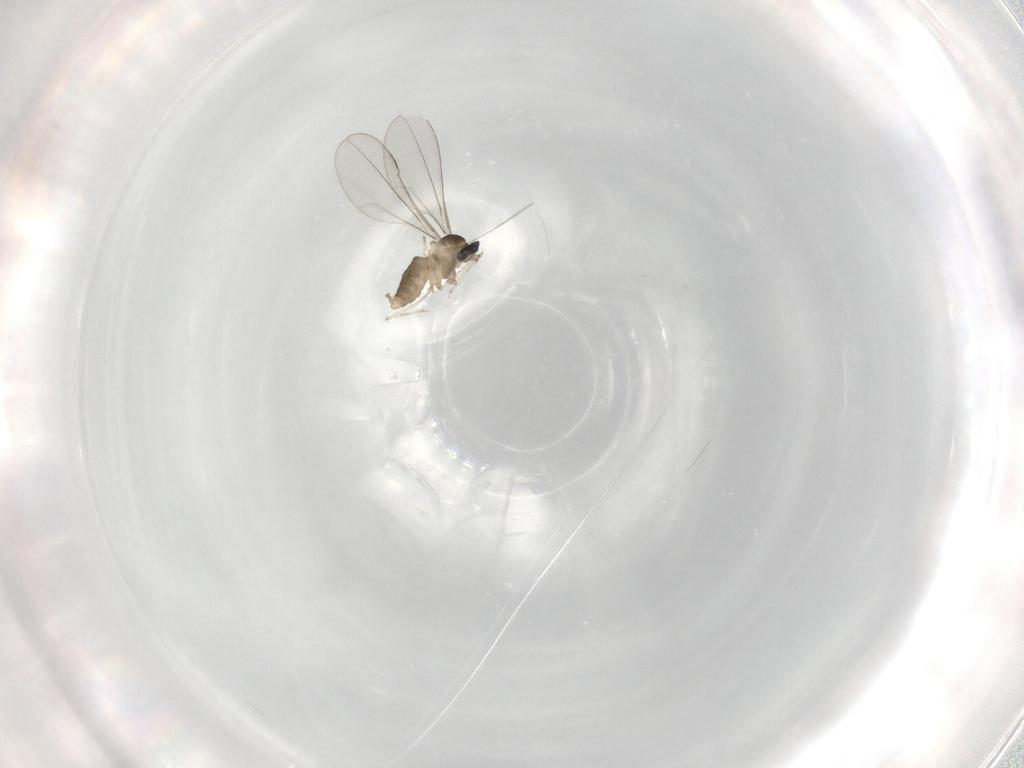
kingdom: Animalia
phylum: Arthropoda
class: Insecta
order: Diptera
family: Cecidomyiidae
